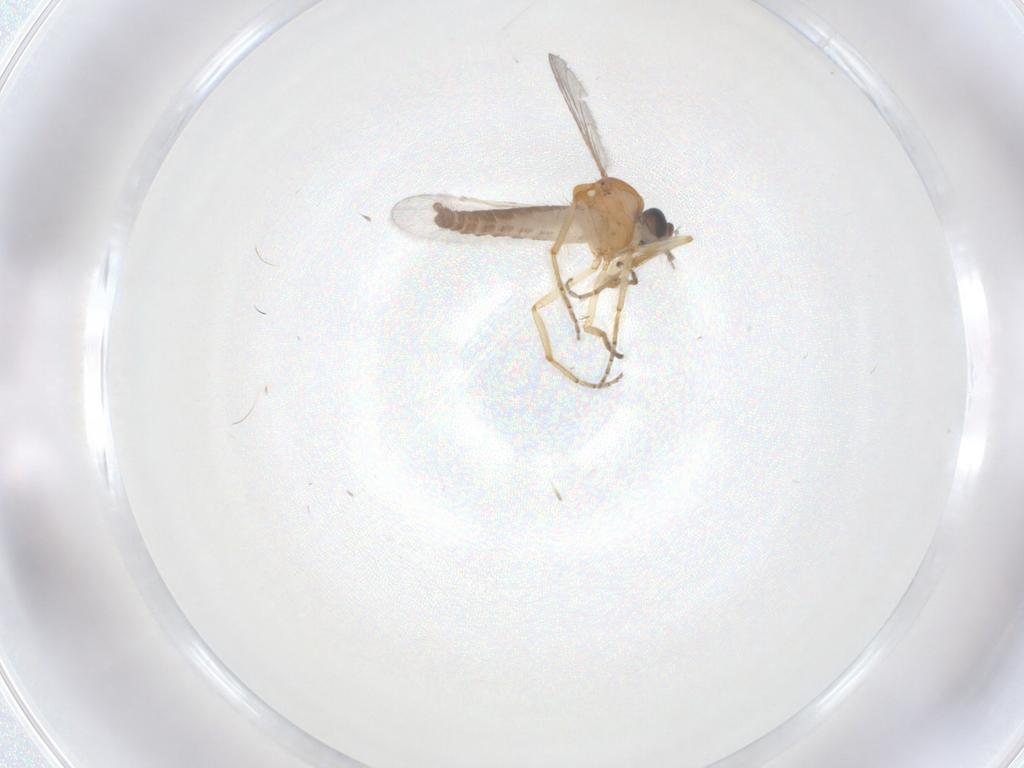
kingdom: Animalia
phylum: Arthropoda
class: Insecta
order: Diptera
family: Ceratopogonidae
